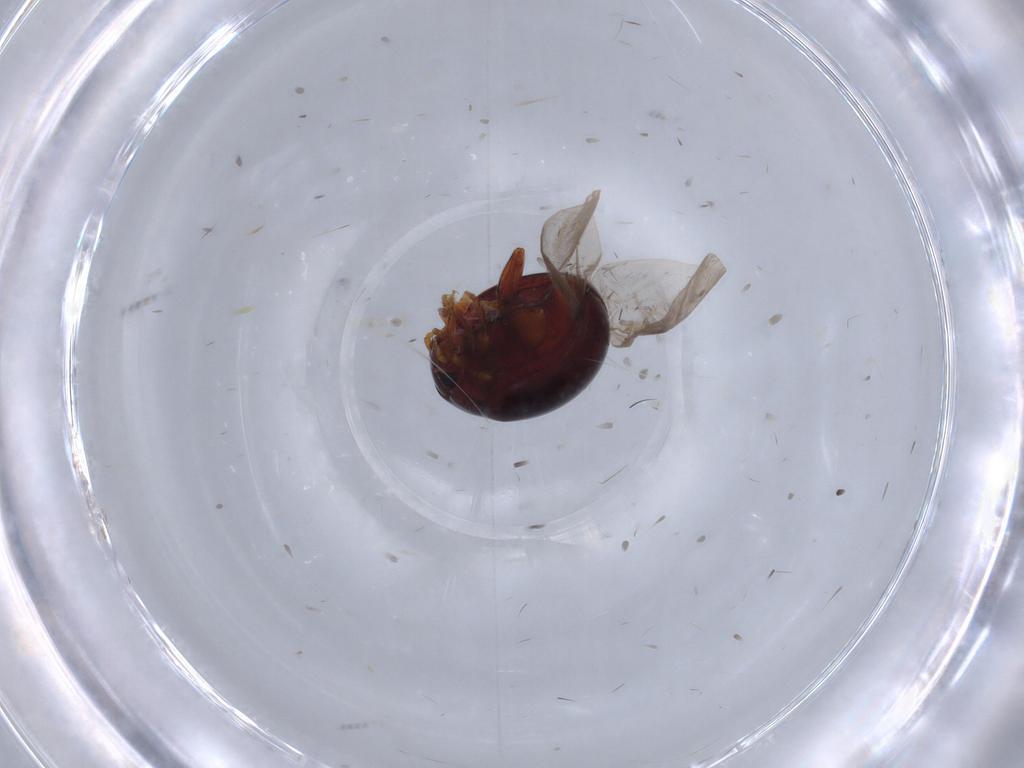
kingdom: Animalia
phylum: Arthropoda
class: Insecta
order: Coleoptera
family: Chrysomelidae
